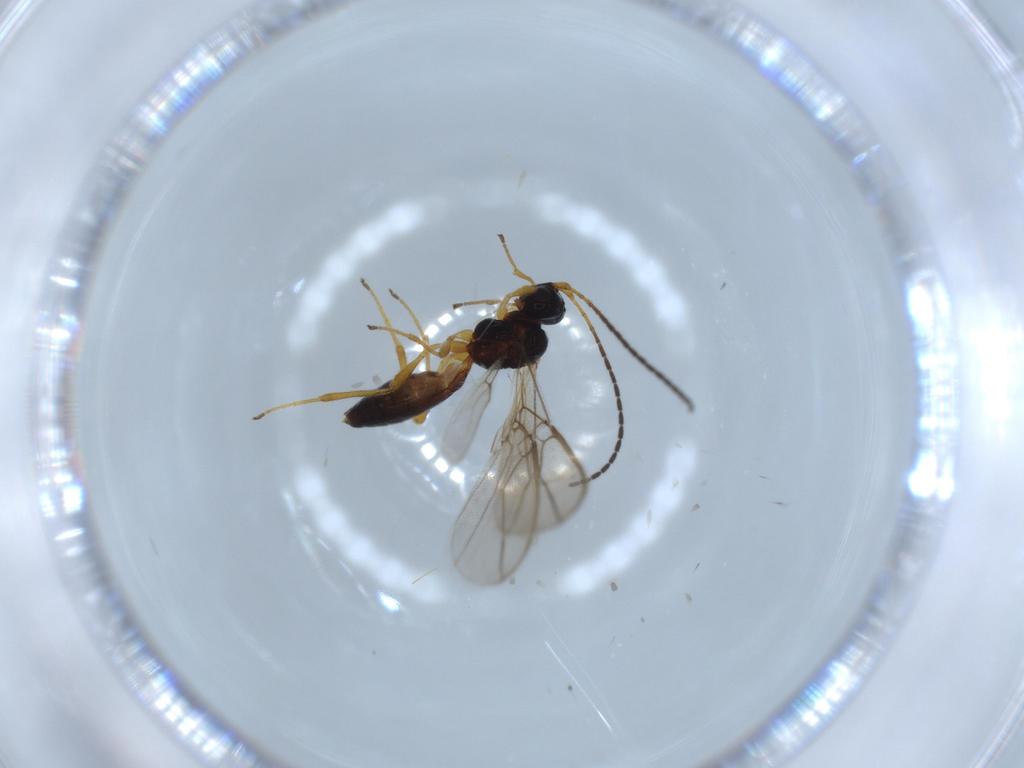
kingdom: Animalia
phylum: Arthropoda
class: Insecta
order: Hymenoptera
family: Braconidae
